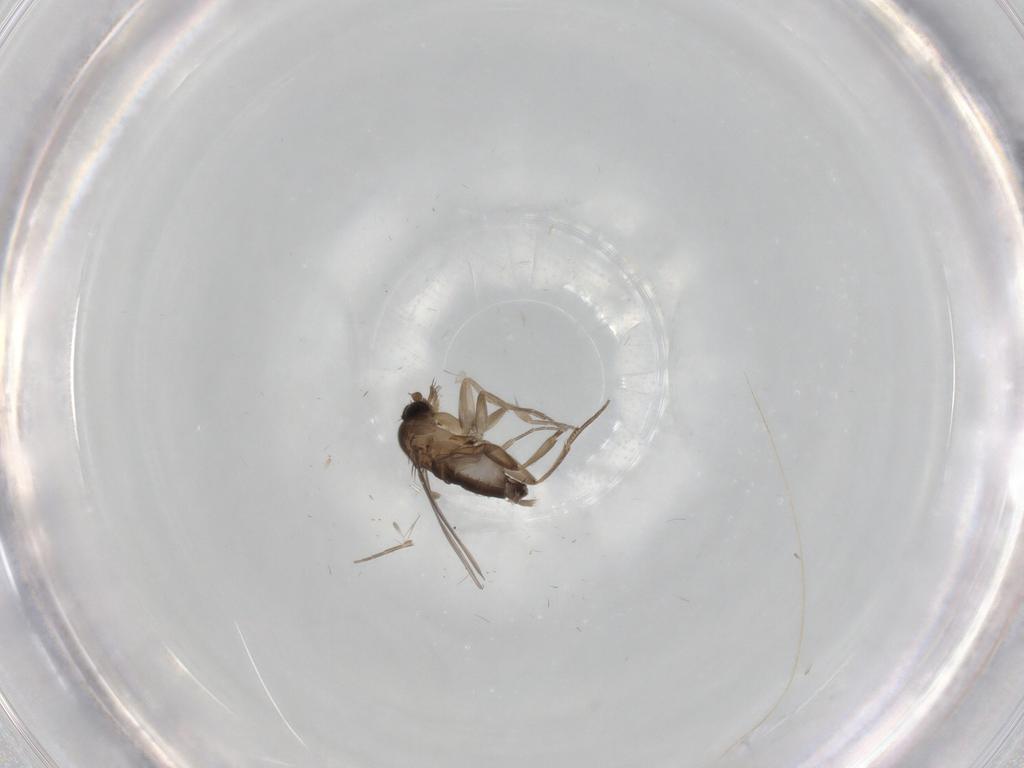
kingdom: Animalia
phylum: Arthropoda
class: Insecta
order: Diptera
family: Phoridae
